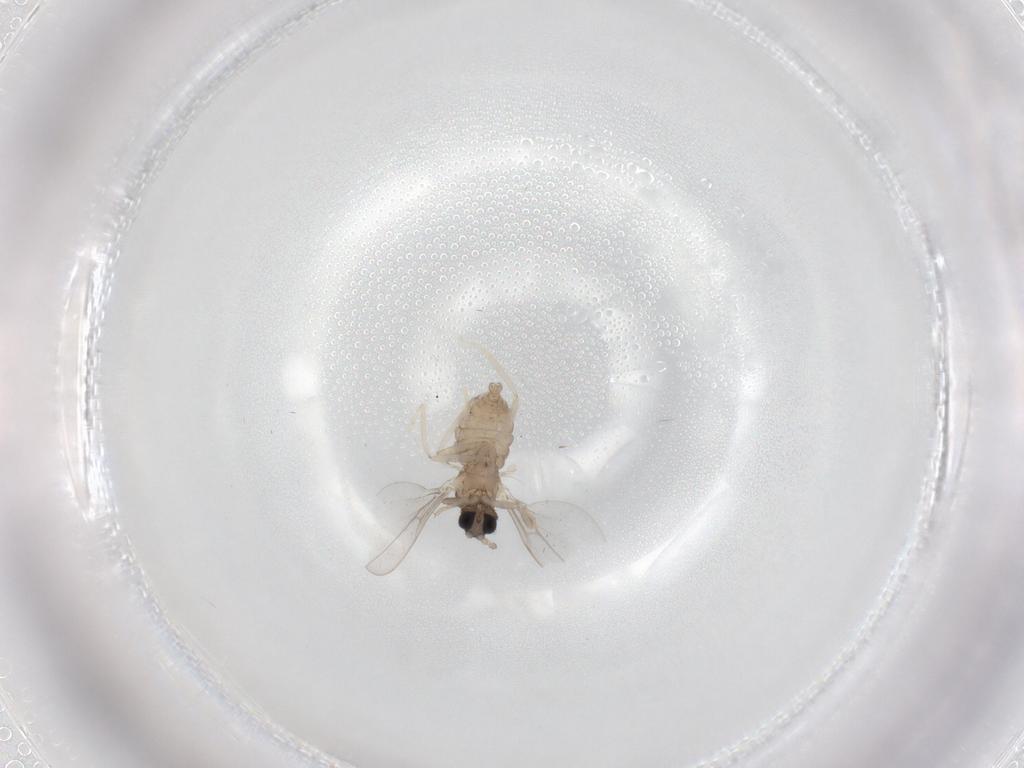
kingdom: Animalia
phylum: Arthropoda
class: Insecta
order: Diptera
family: Cecidomyiidae
